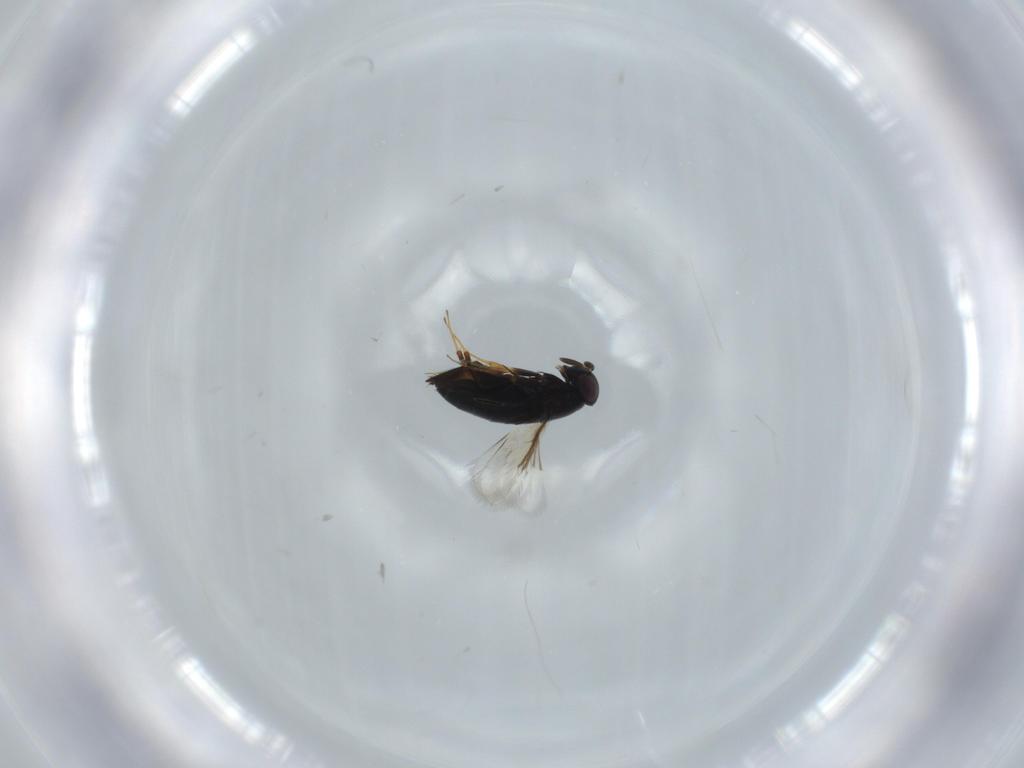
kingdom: Animalia
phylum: Arthropoda
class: Insecta
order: Hymenoptera
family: Signiphoridae
